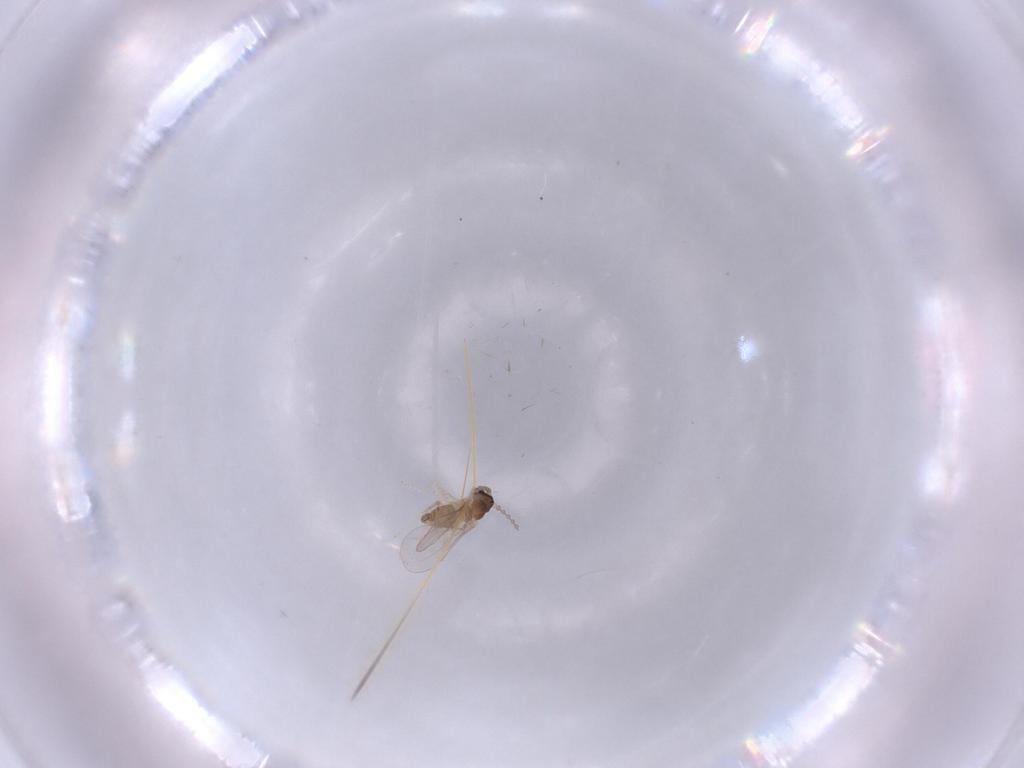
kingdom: Animalia
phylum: Arthropoda
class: Insecta
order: Diptera
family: Cecidomyiidae
